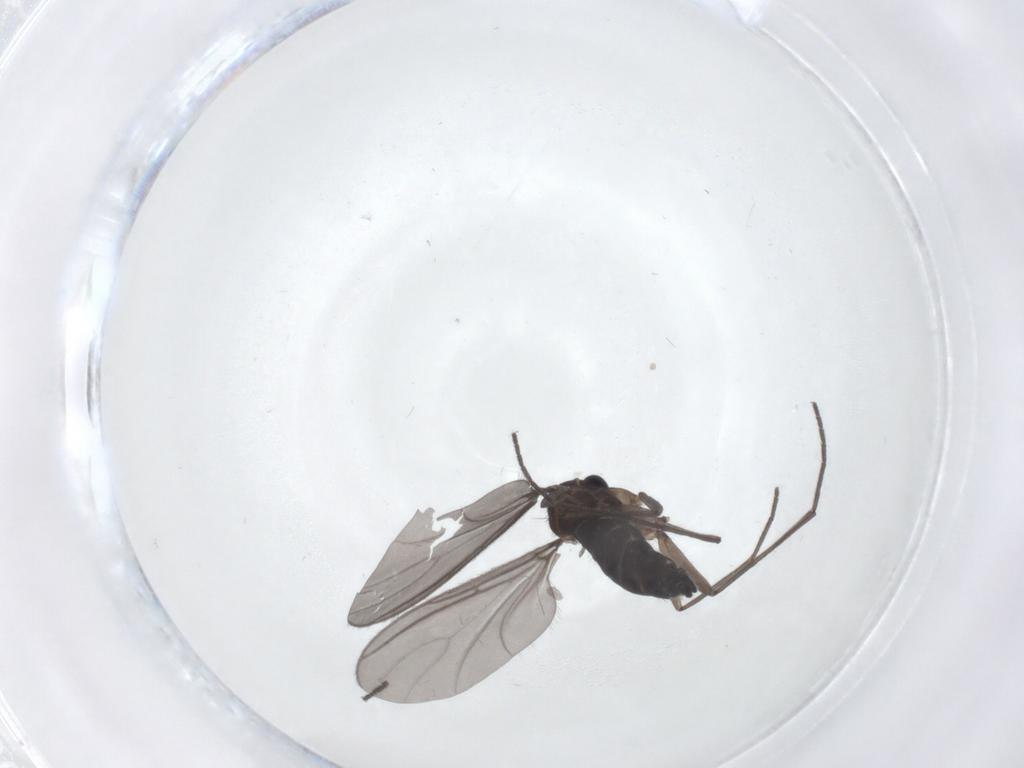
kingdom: Animalia
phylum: Arthropoda
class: Insecta
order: Diptera
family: Sciaridae
